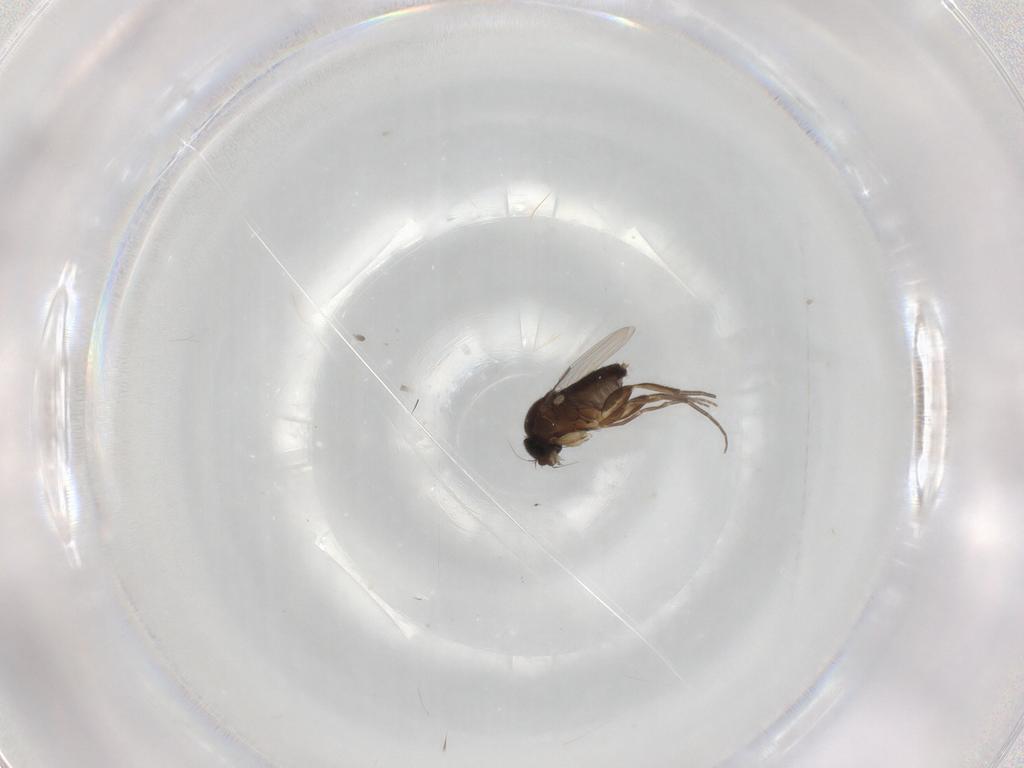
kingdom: Animalia
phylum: Arthropoda
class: Insecta
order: Diptera
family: Phoridae
